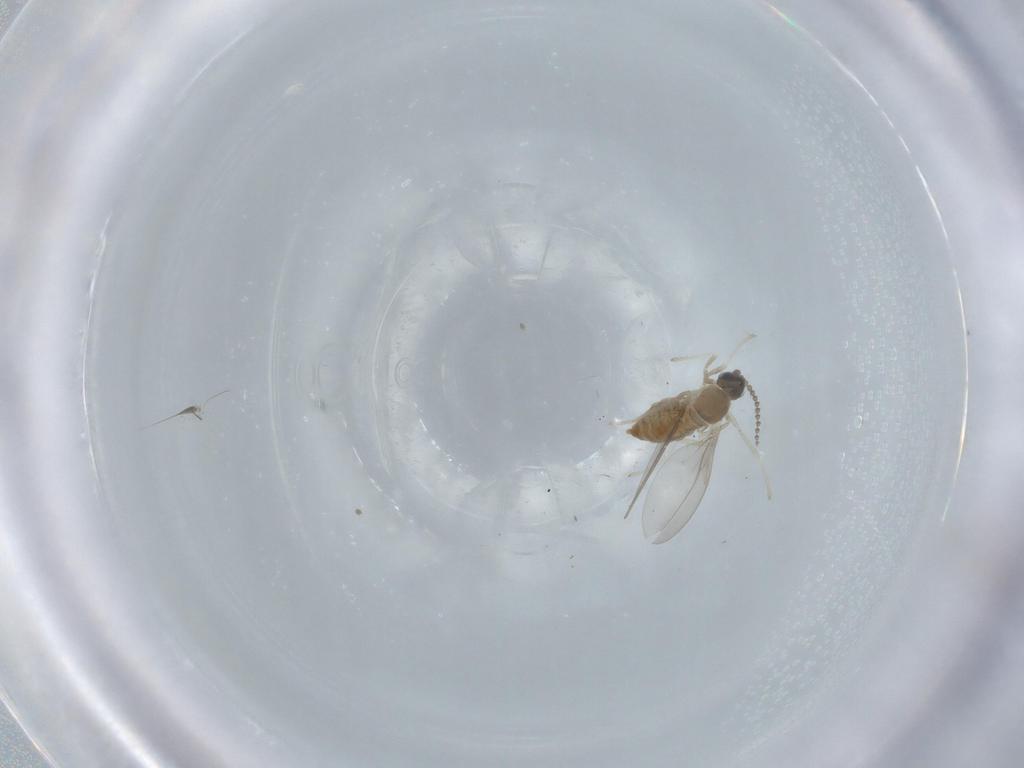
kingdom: Animalia
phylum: Arthropoda
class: Insecta
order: Diptera
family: Cecidomyiidae
